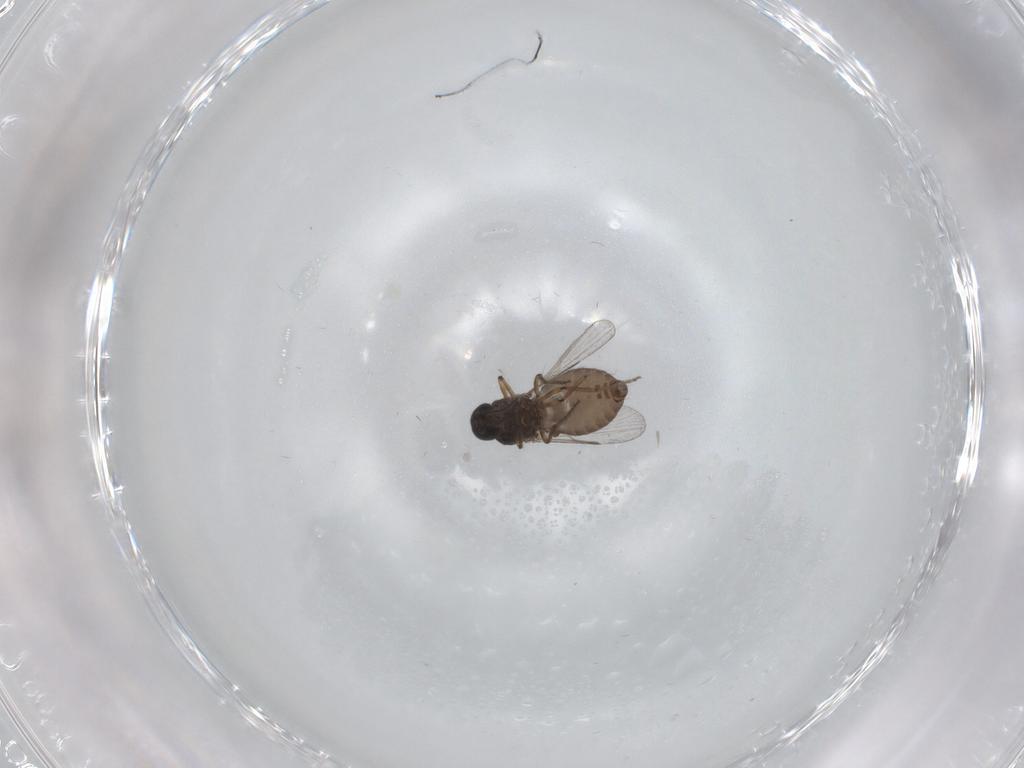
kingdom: Animalia
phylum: Arthropoda
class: Insecta
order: Diptera
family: Ceratopogonidae
